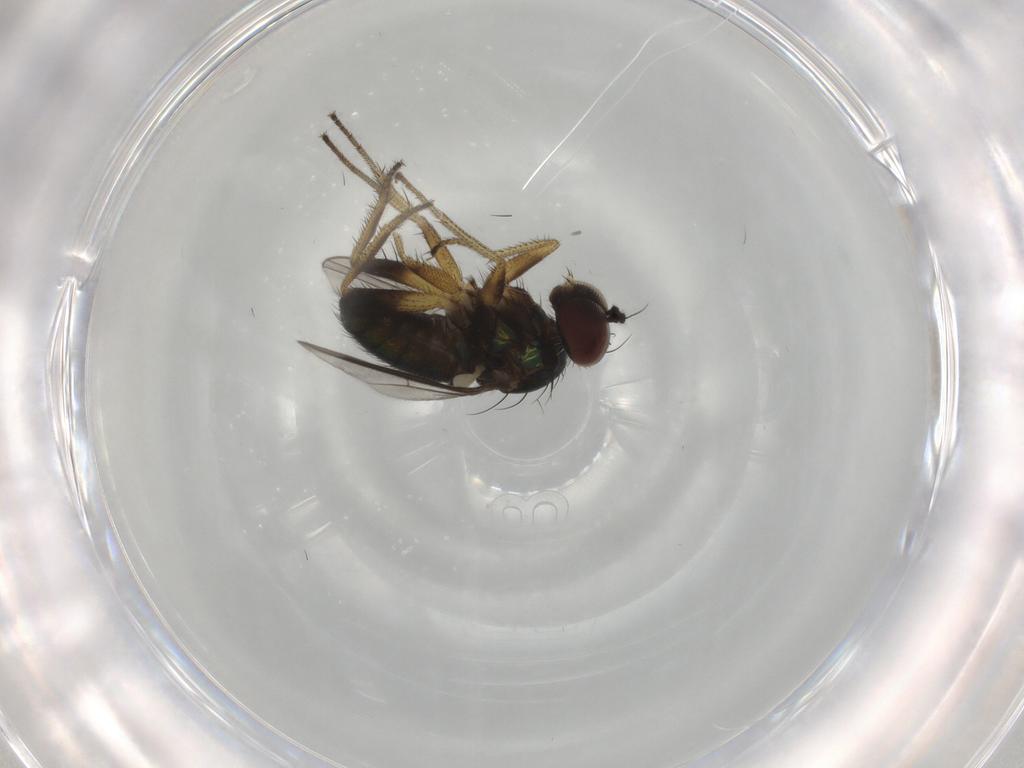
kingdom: Animalia
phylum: Arthropoda
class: Insecta
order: Diptera
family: Dolichopodidae
